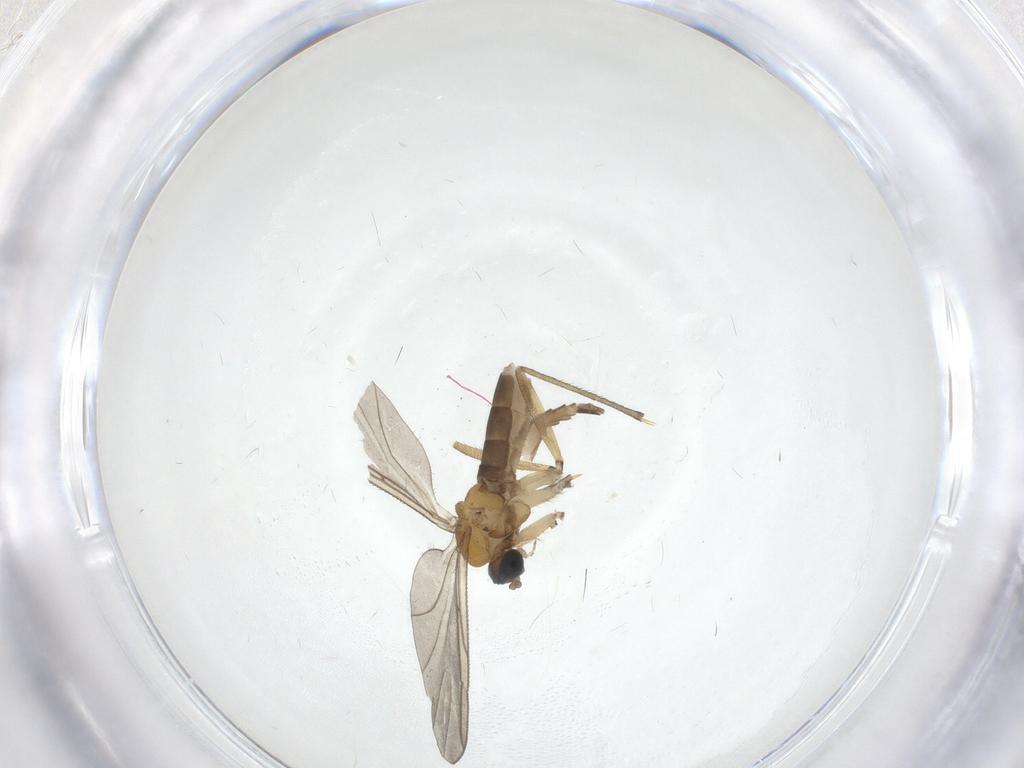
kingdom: Animalia
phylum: Arthropoda
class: Insecta
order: Diptera
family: Sciaridae
